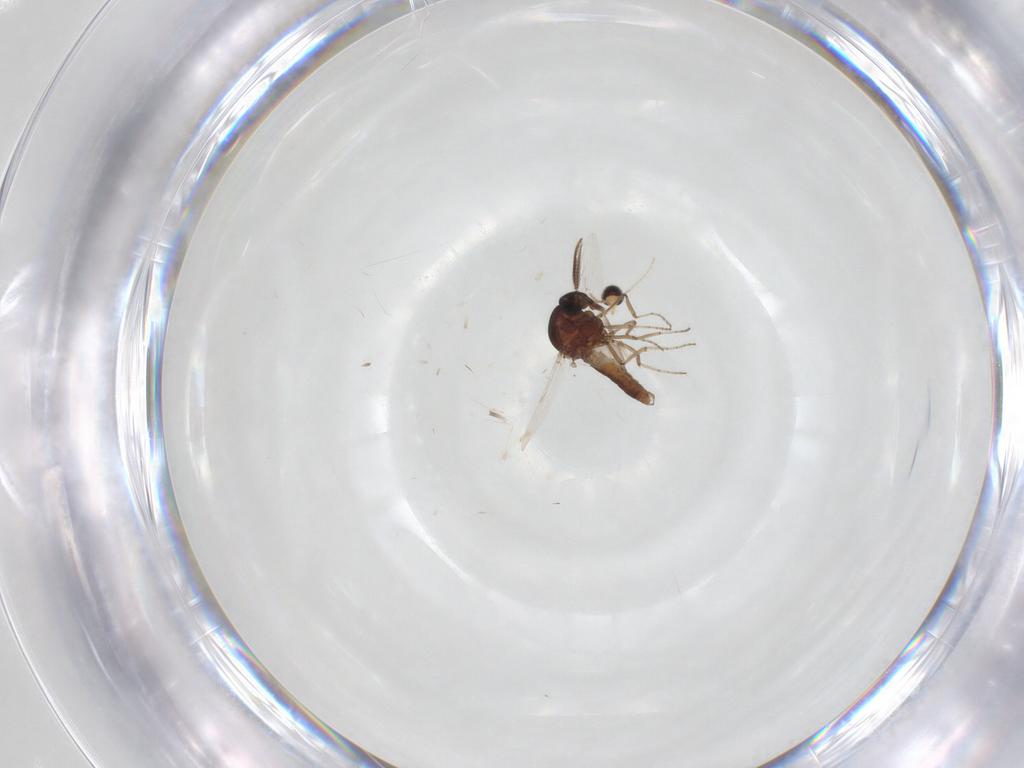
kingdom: Animalia
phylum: Arthropoda
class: Insecta
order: Diptera
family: Ceratopogonidae
